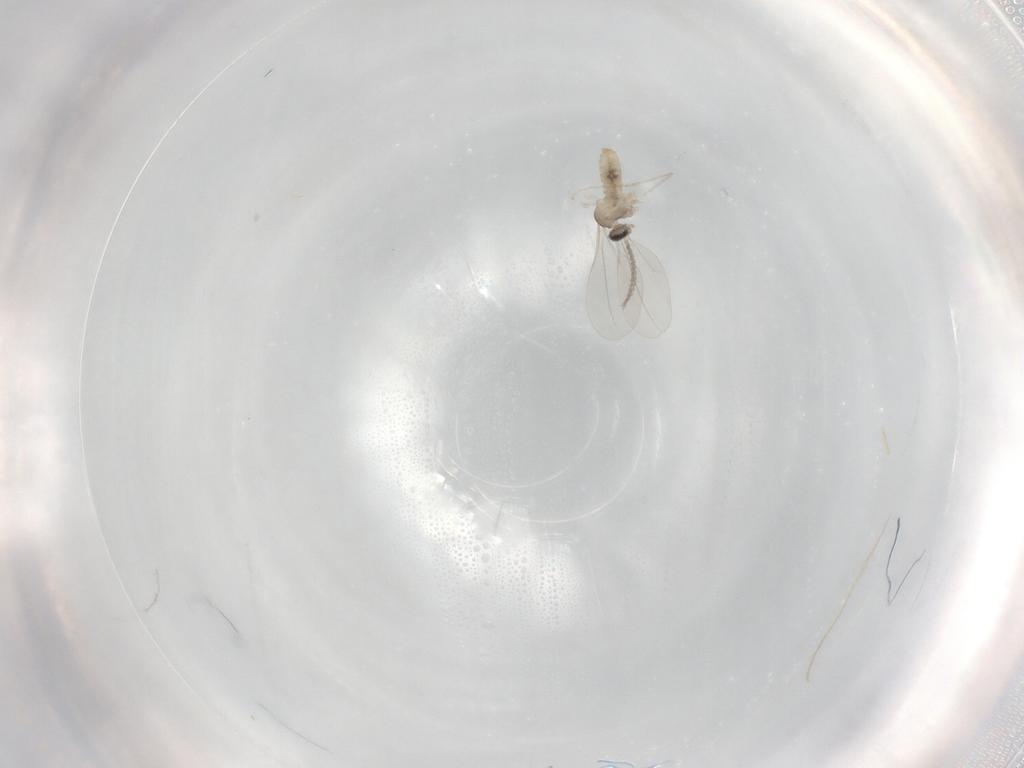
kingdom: Animalia
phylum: Arthropoda
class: Insecta
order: Diptera
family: Cecidomyiidae
